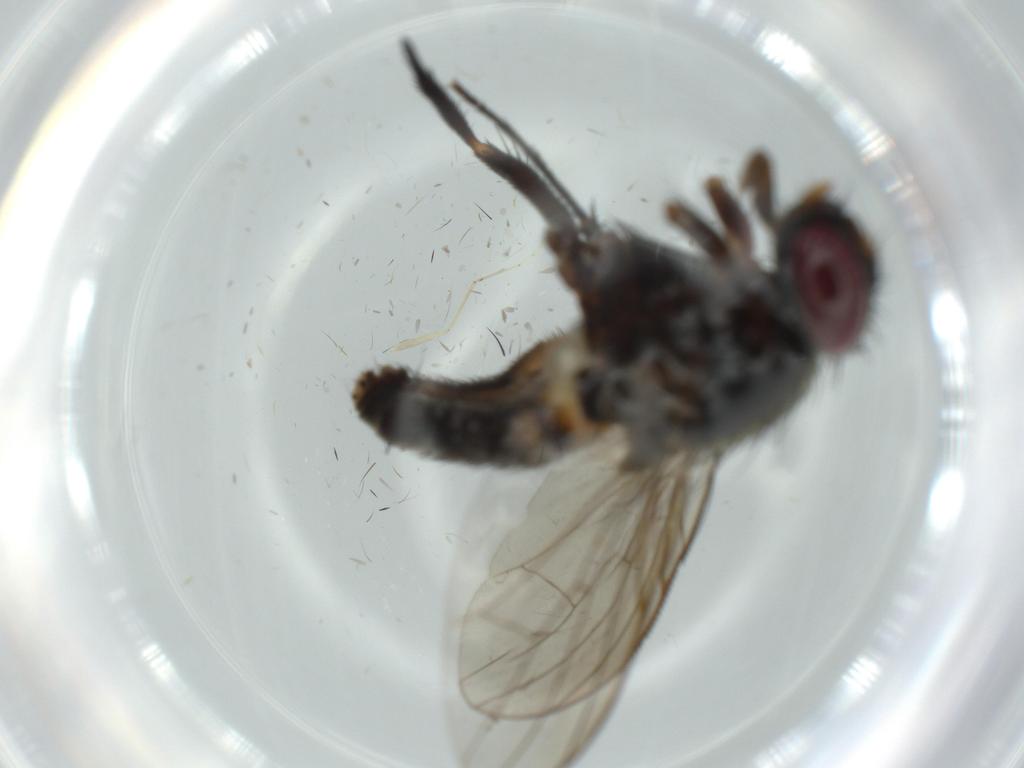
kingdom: Animalia
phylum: Arthropoda
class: Insecta
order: Diptera
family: Milichiidae
